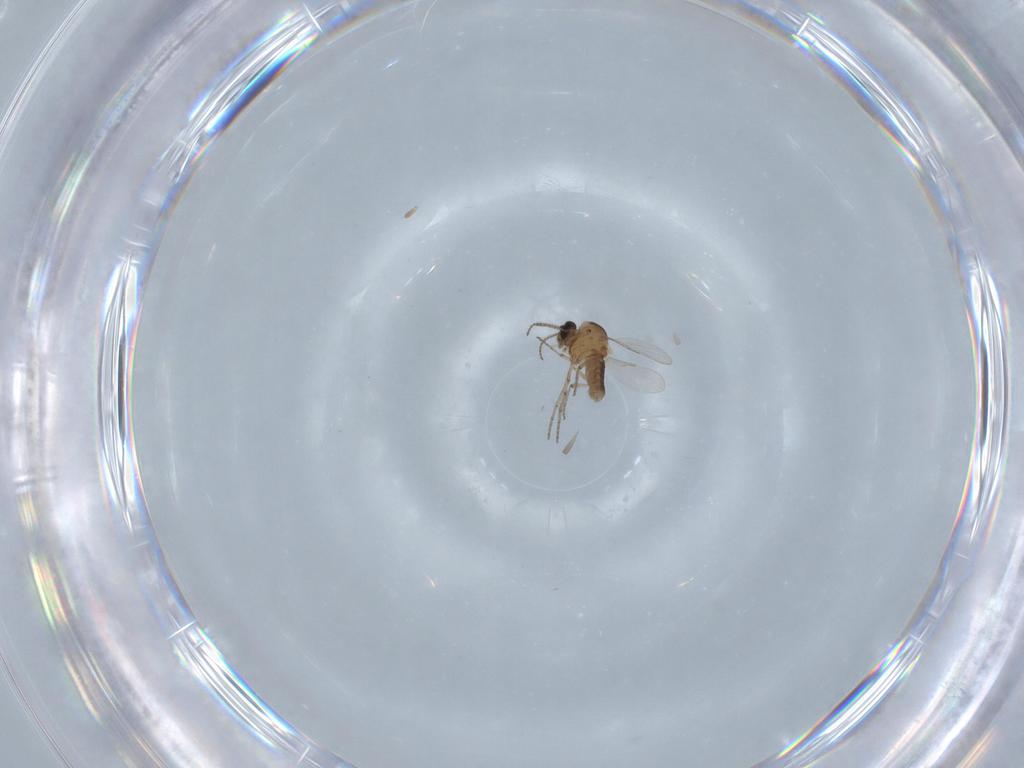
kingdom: Animalia
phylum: Arthropoda
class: Insecta
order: Diptera
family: Ceratopogonidae
